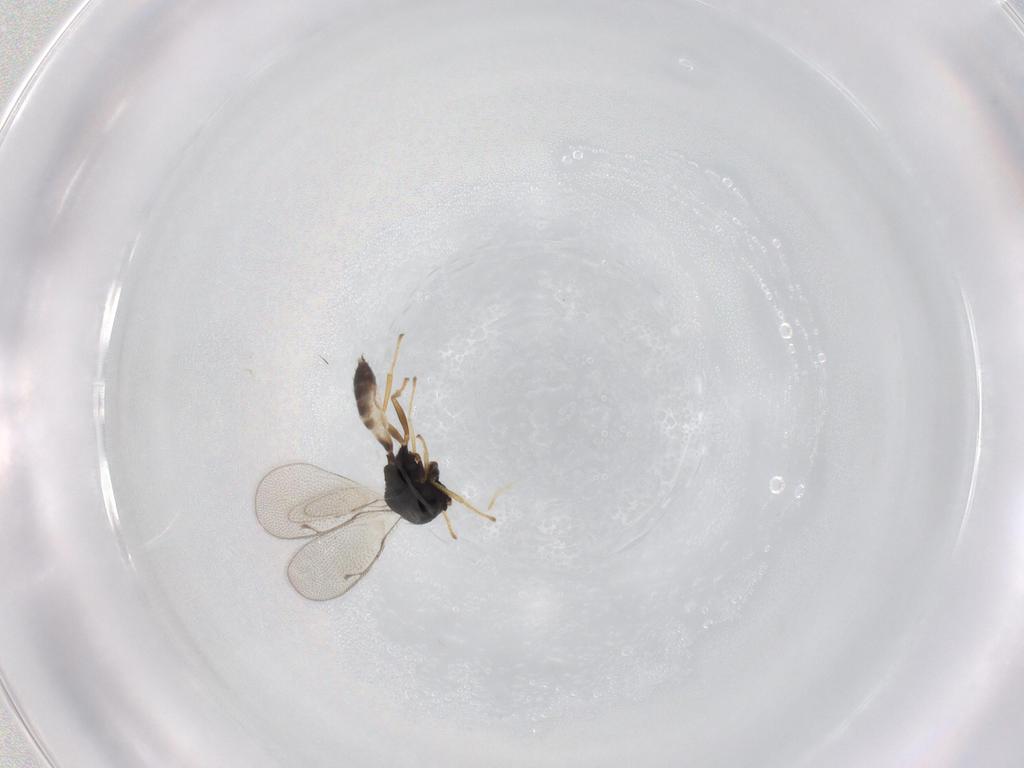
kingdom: Animalia
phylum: Arthropoda
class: Insecta
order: Hymenoptera
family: Pteromalidae
